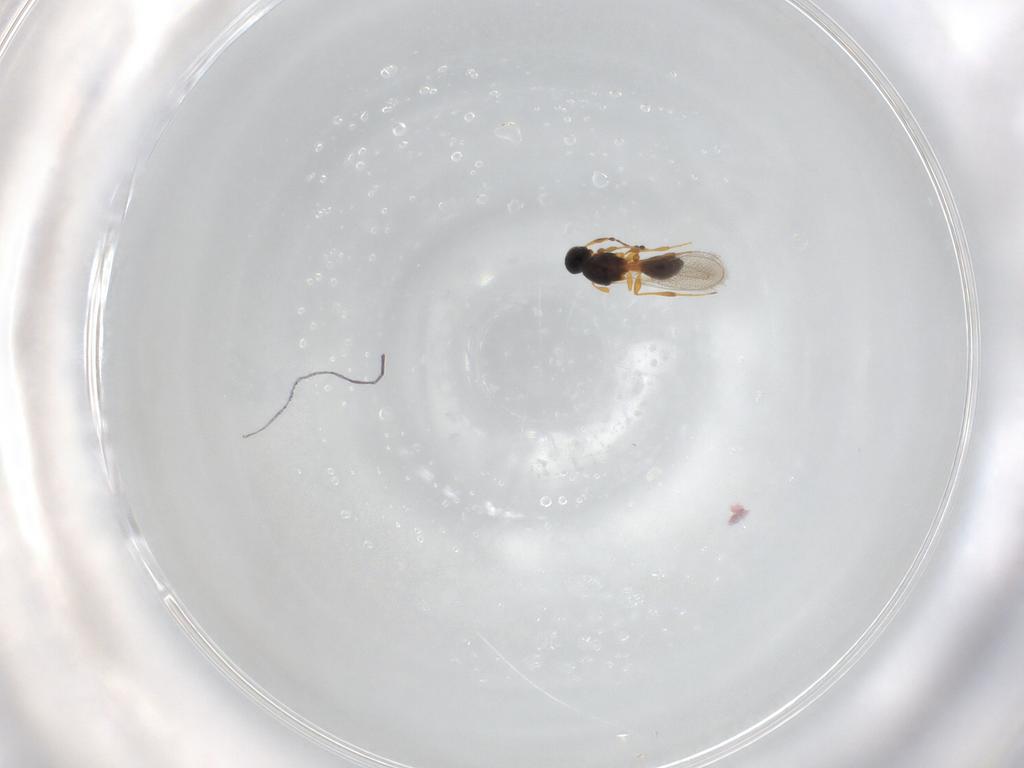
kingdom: Animalia
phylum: Arthropoda
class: Insecta
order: Hymenoptera
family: Platygastridae
